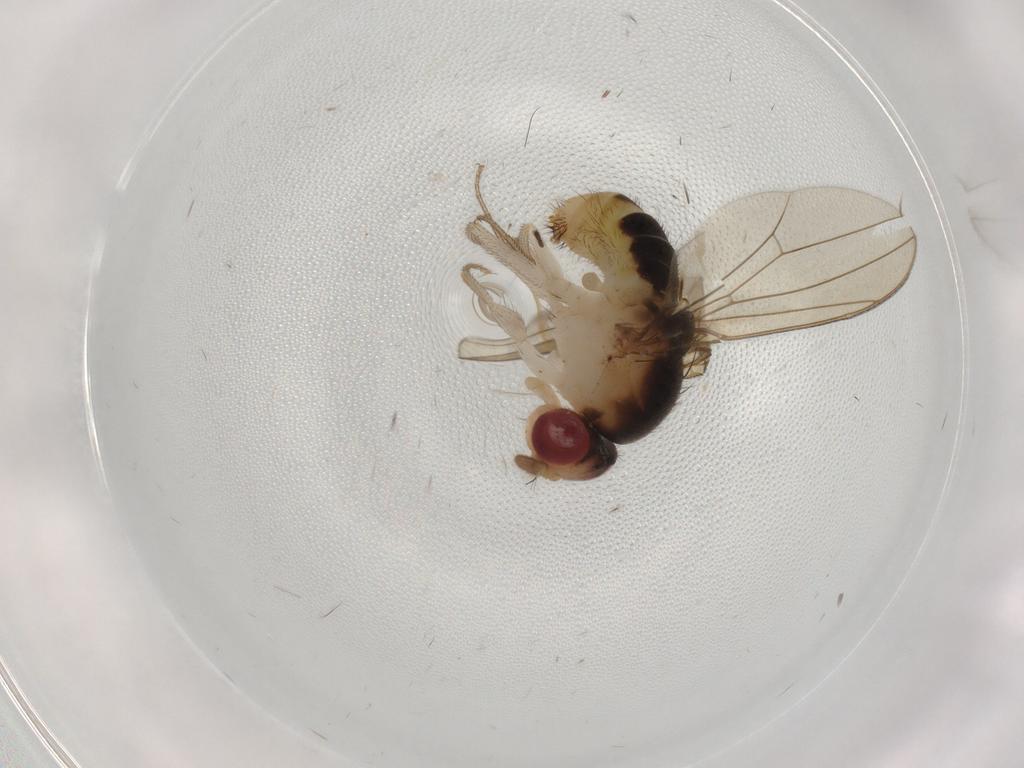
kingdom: Animalia
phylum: Arthropoda
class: Insecta
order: Diptera
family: Drosophilidae
